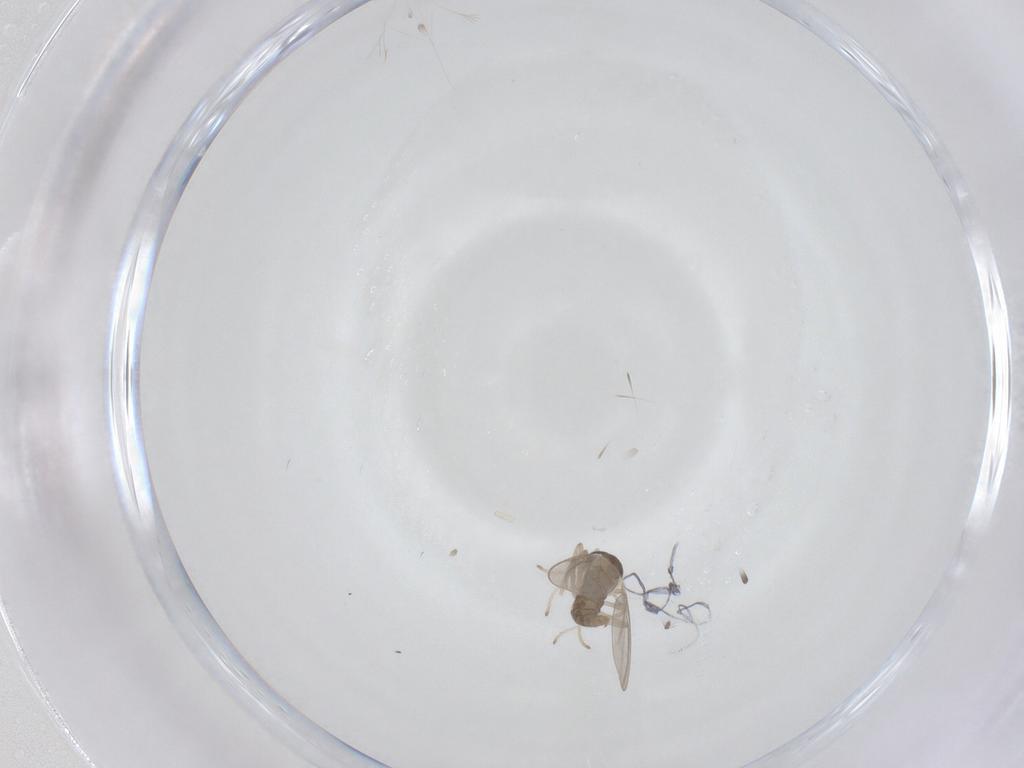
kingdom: Animalia
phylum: Arthropoda
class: Insecta
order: Diptera
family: Cecidomyiidae
